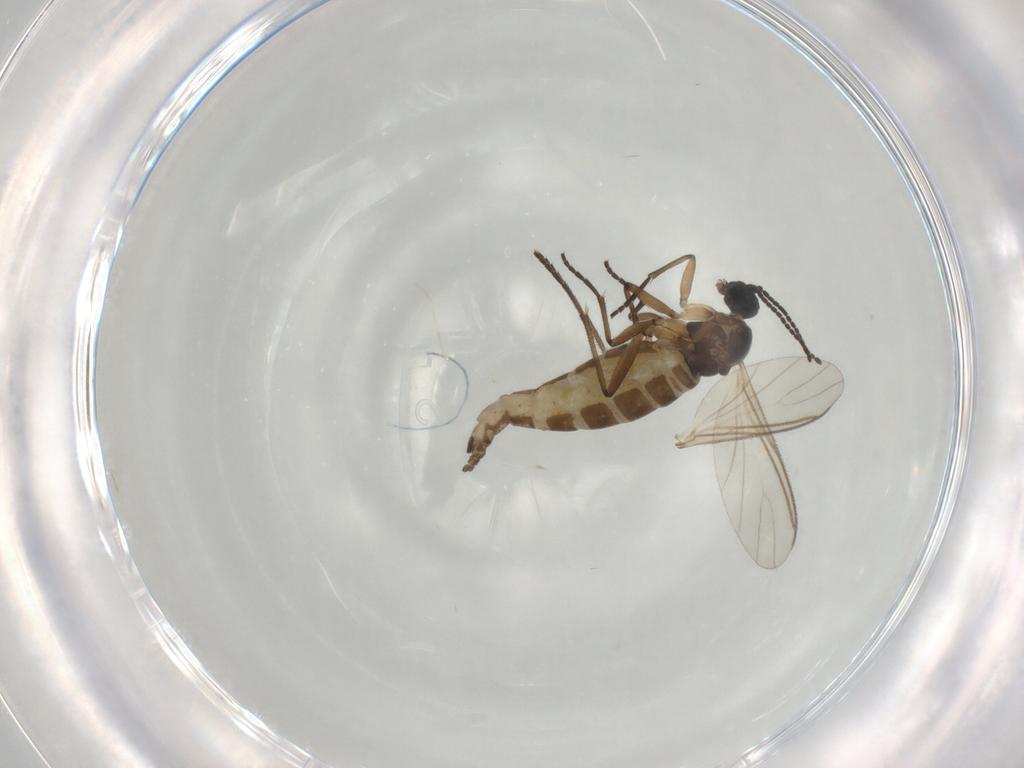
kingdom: Animalia
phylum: Arthropoda
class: Insecta
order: Diptera
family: Sciaridae
